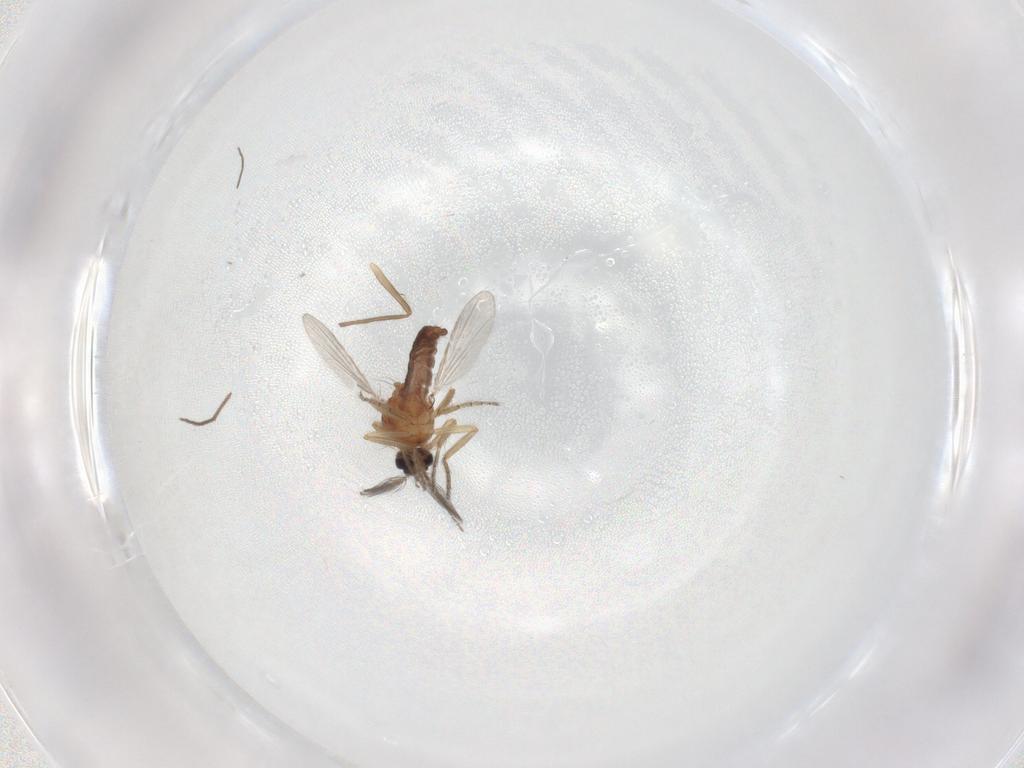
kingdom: Animalia
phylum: Arthropoda
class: Insecta
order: Diptera
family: Ceratopogonidae
